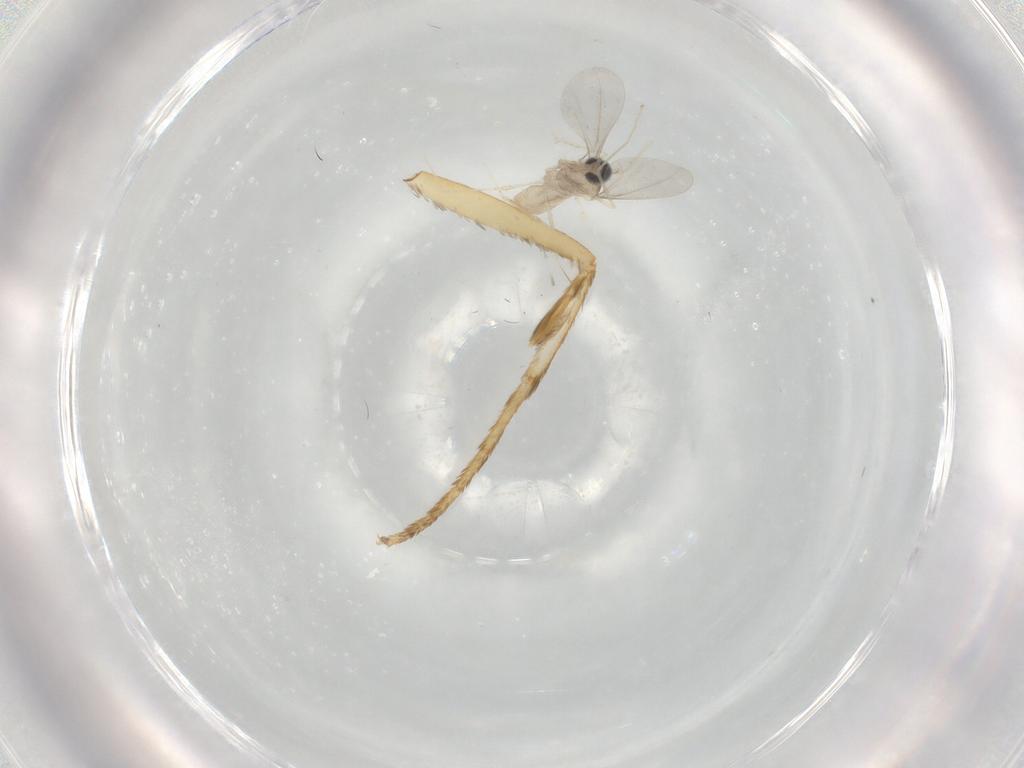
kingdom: Animalia
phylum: Arthropoda
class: Insecta
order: Diptera
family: Cecidomyiidae
